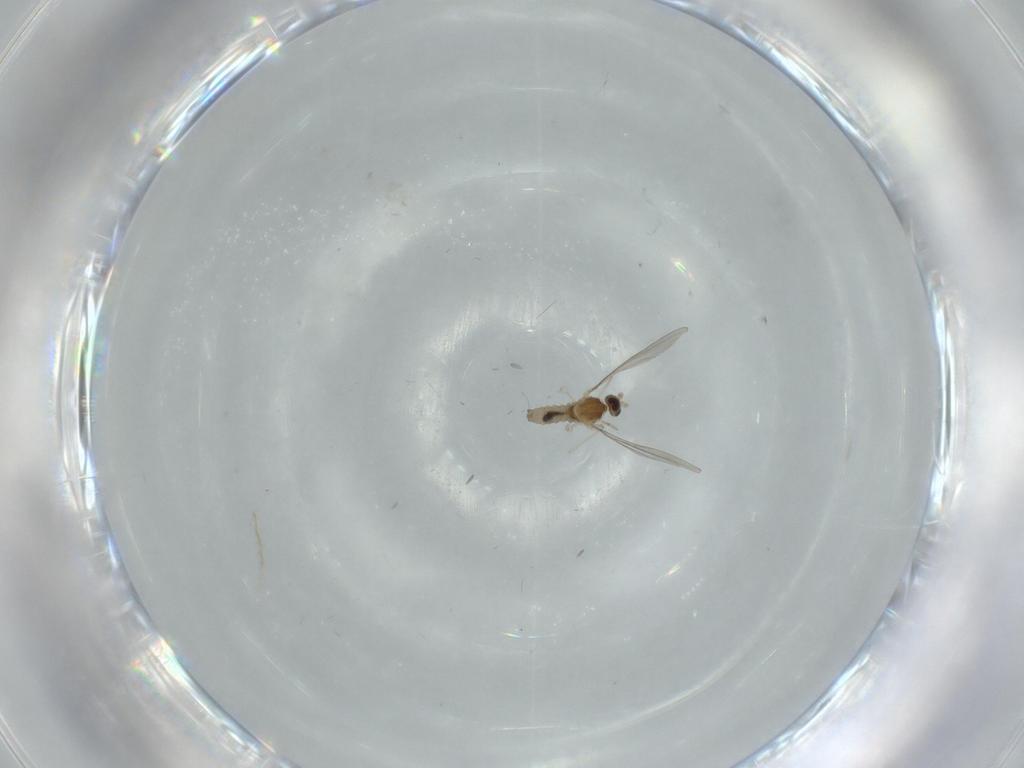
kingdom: Animalia
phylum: Arthropoda
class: Insecta
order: Diptera
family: Cecidomyiidae
